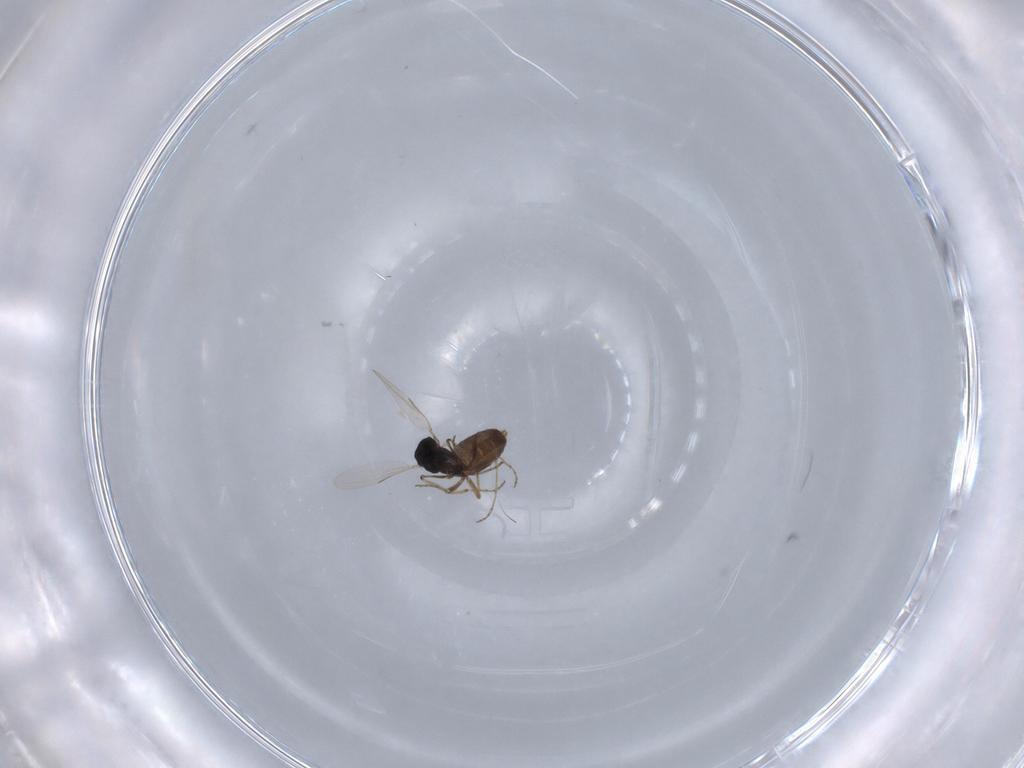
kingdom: Animalia
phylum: Arthropoda
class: Insecta
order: Diptera
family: Ceratopogonidae
